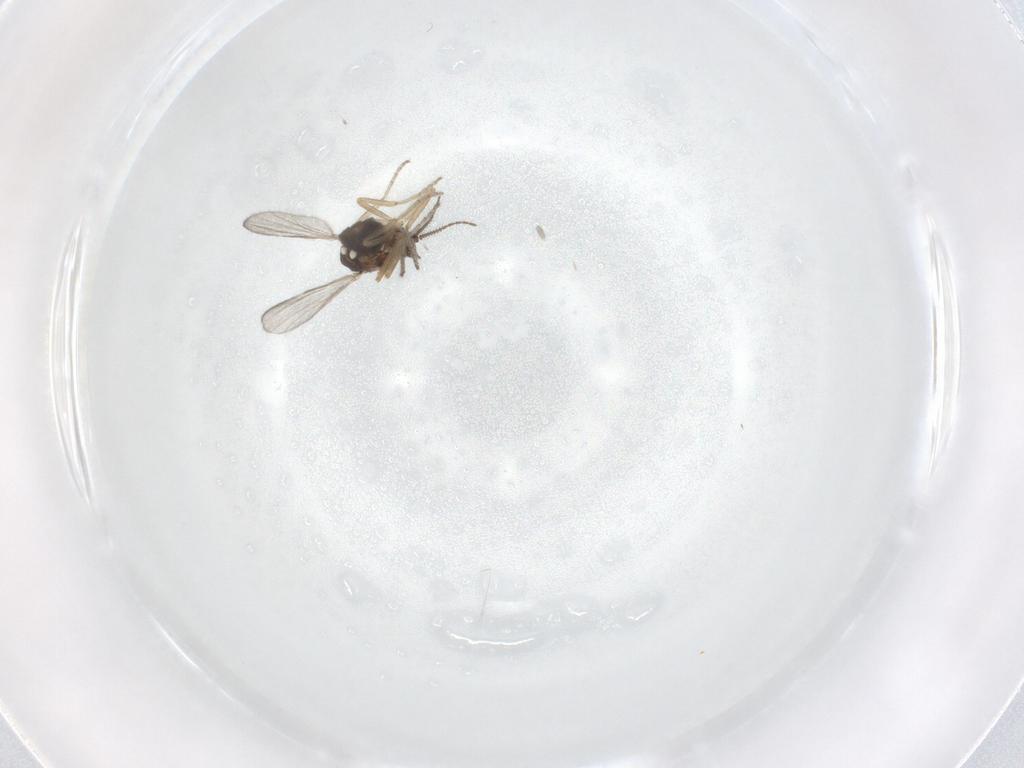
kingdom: Animalia
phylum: Arthropoda
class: Insecta
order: Diptera
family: Ceratopogonidae
